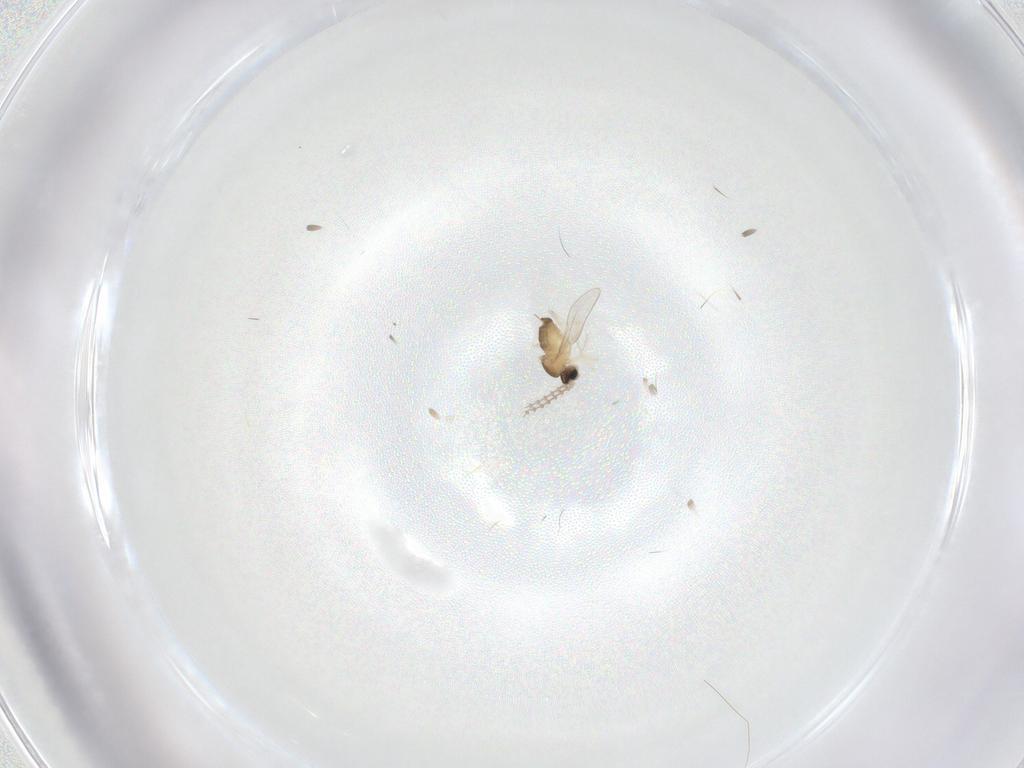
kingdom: Animalia
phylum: Arthropoda
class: Insecta
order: Diptera
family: Cecidomyiidae
